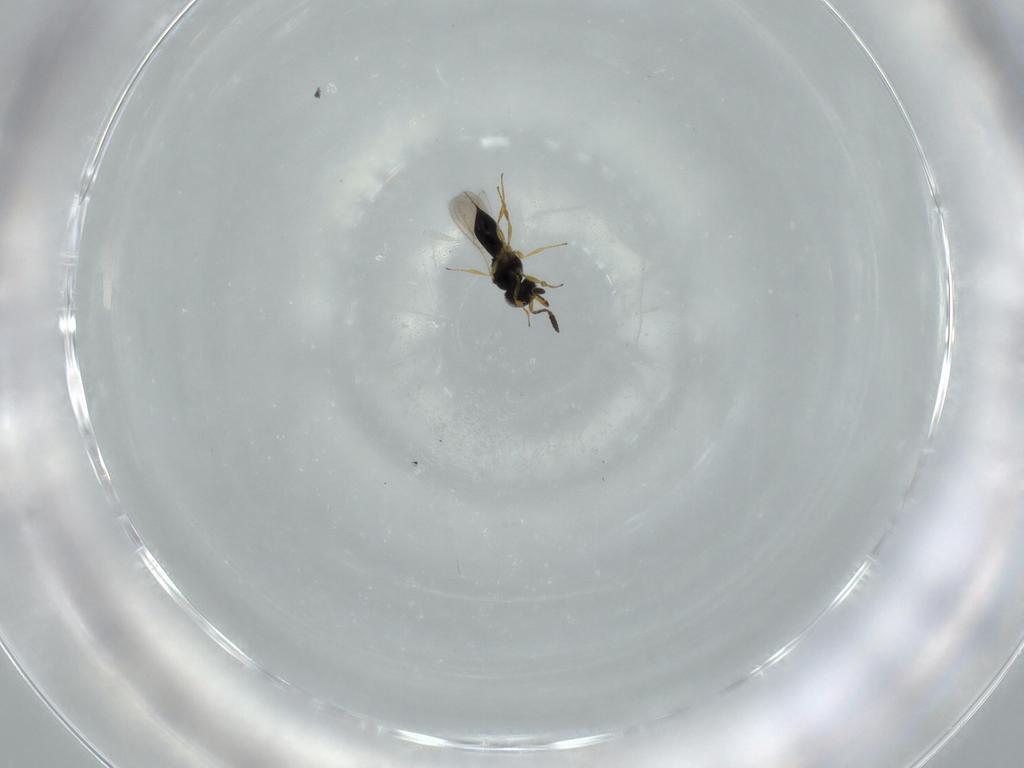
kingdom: Animalia
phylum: Arthropoda
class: Insecta
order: Hymenoptera
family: Scelionidae
